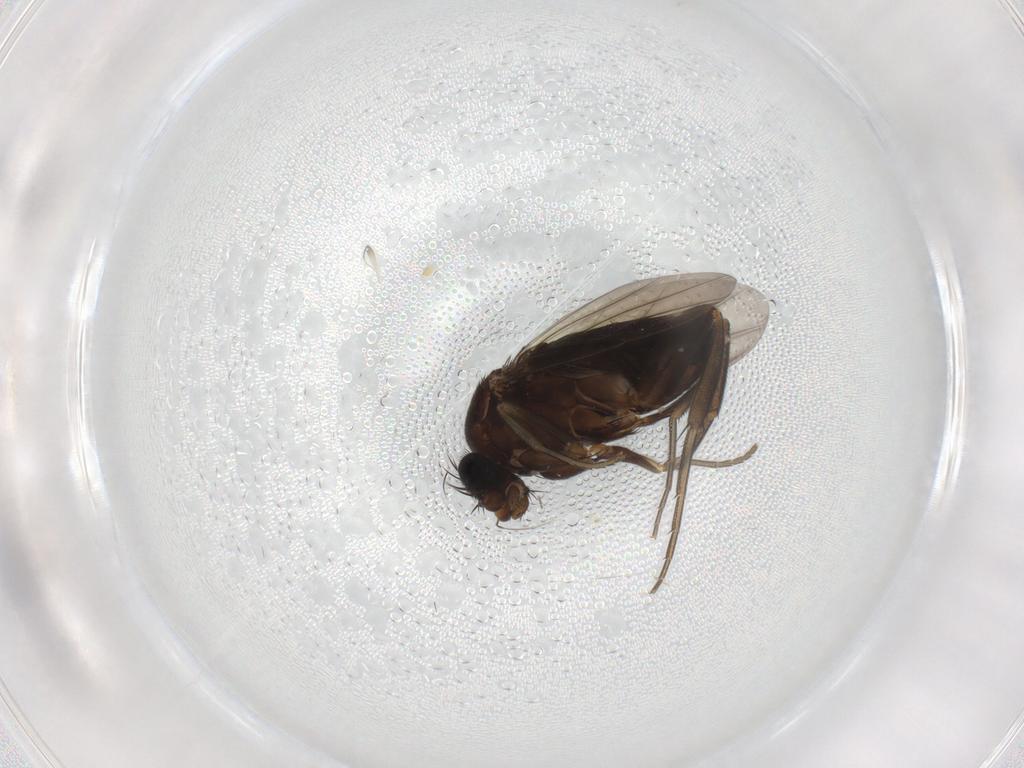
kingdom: Animalia
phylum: Arthropoda
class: Insecta
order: Diptera
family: Phoridae
